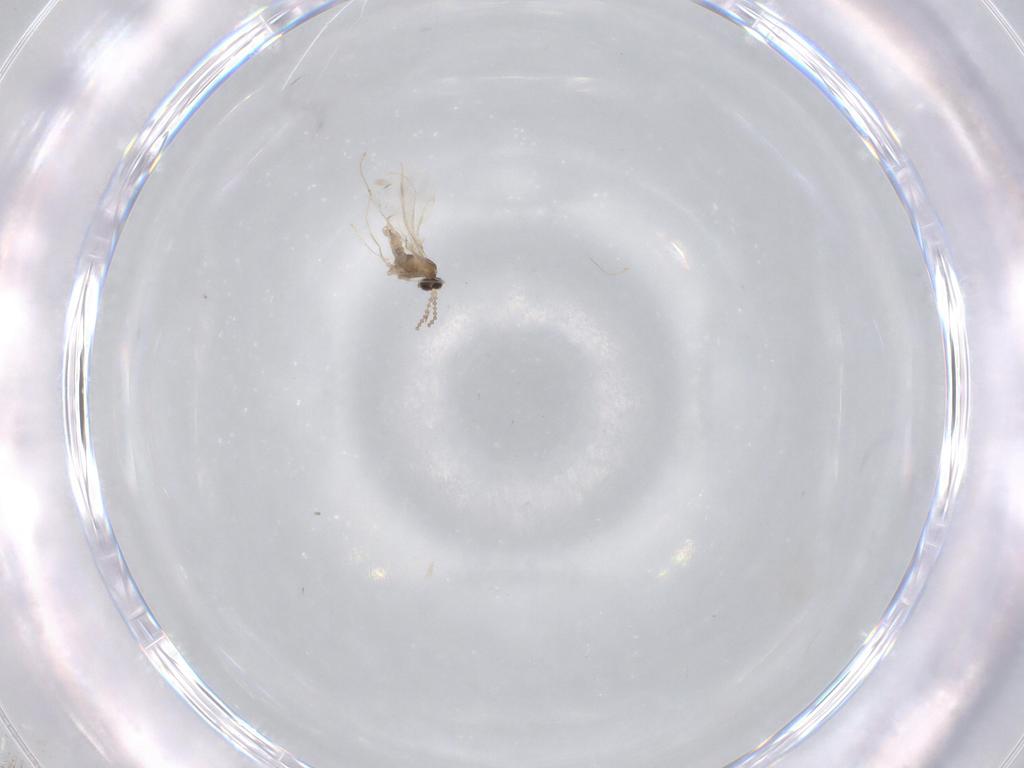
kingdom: Animalia
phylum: Arthropoda
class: Insecta
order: Diptera
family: Cecidomyiidae
